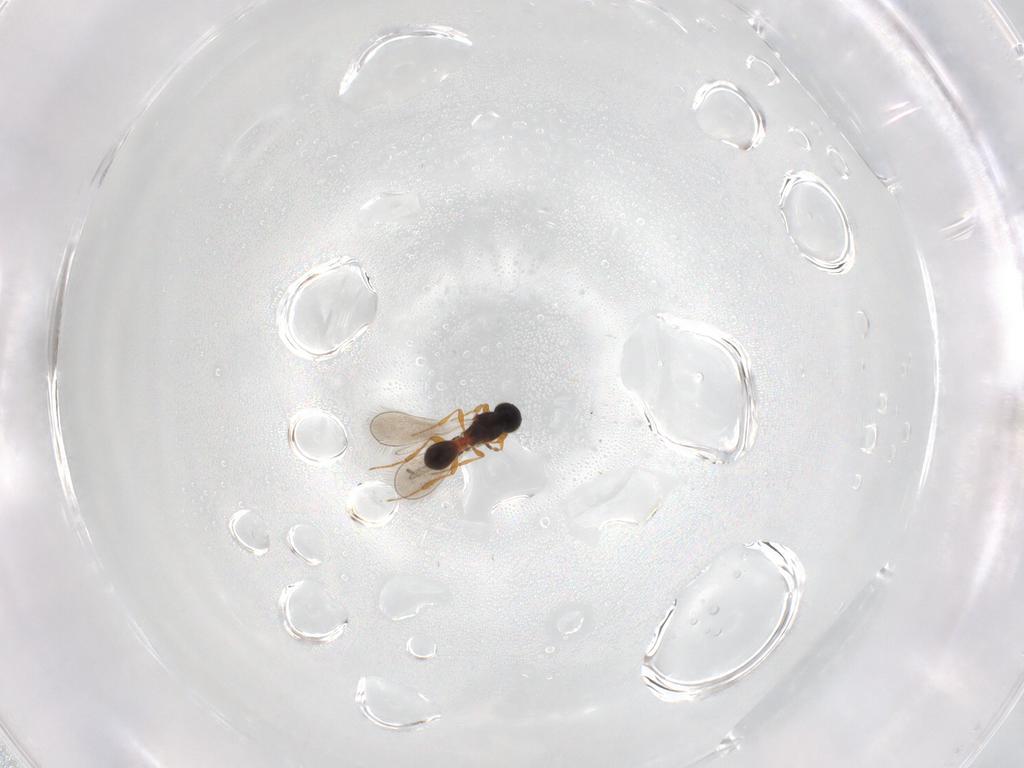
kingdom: Animalia
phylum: Arthropoda
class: Insecta
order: Hymenoptera
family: Platygastridae
